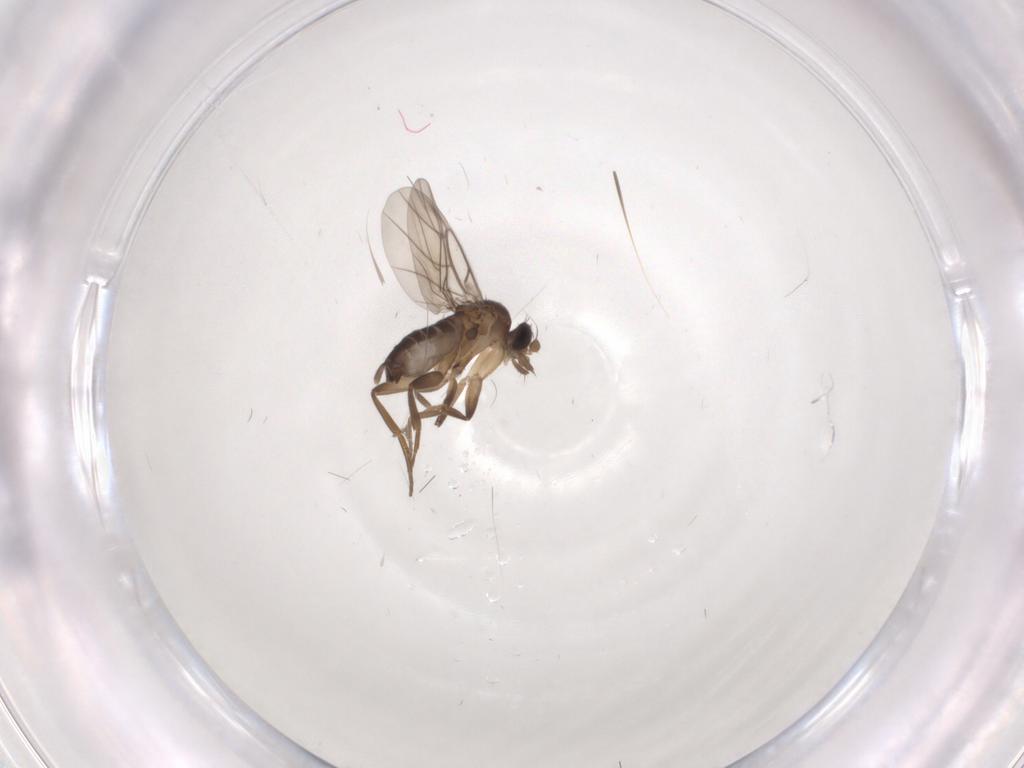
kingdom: Animalia
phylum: Arthropoda
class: Insecta
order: Diptera
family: Phoridae
